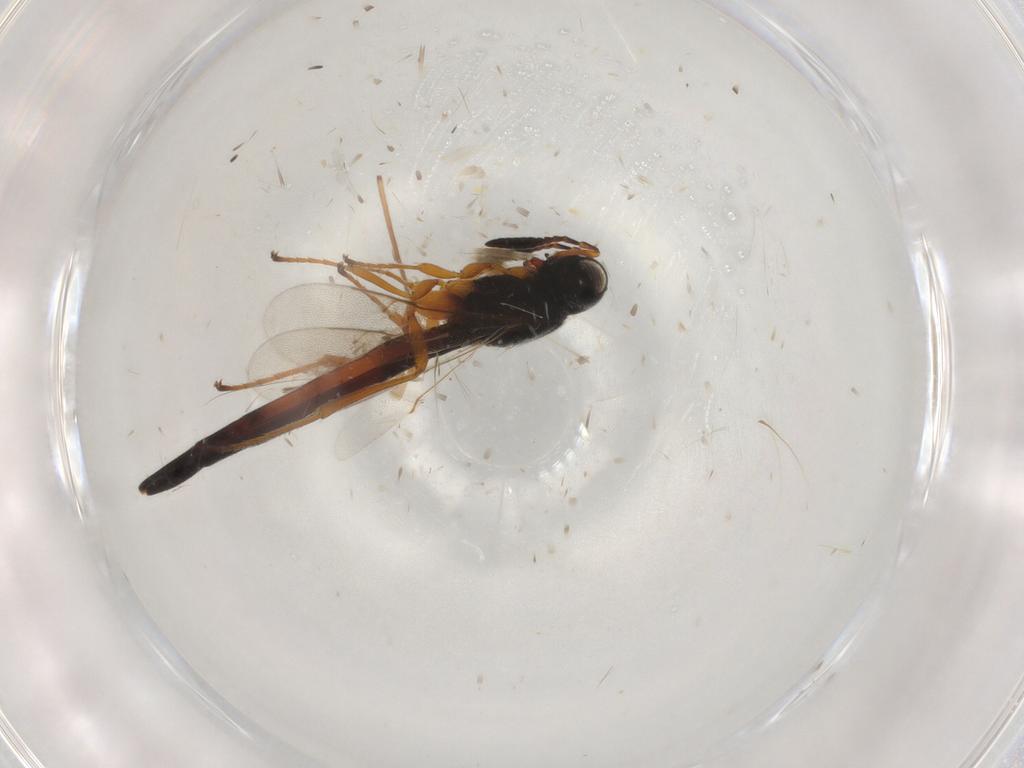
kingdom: Animalia
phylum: Arthropoda
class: Insecta
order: Hymenoptera
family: Scelionidae
